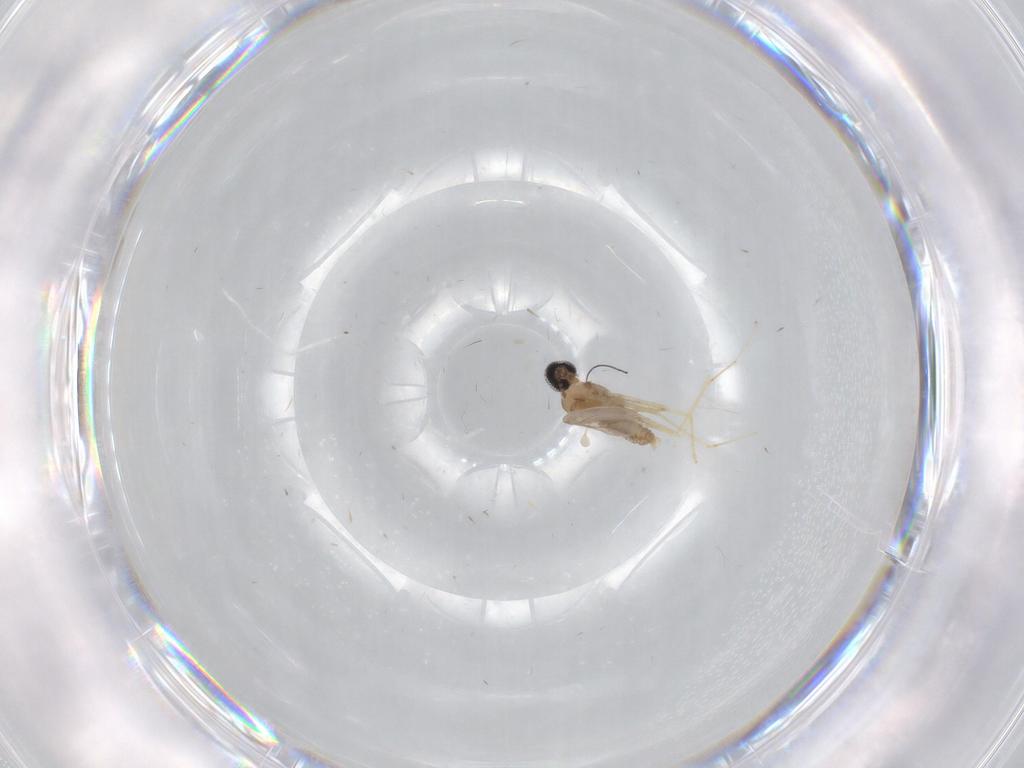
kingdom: Animalia
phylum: Arthropoda
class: Insecta
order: Diptera
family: Cecidomyiidae
